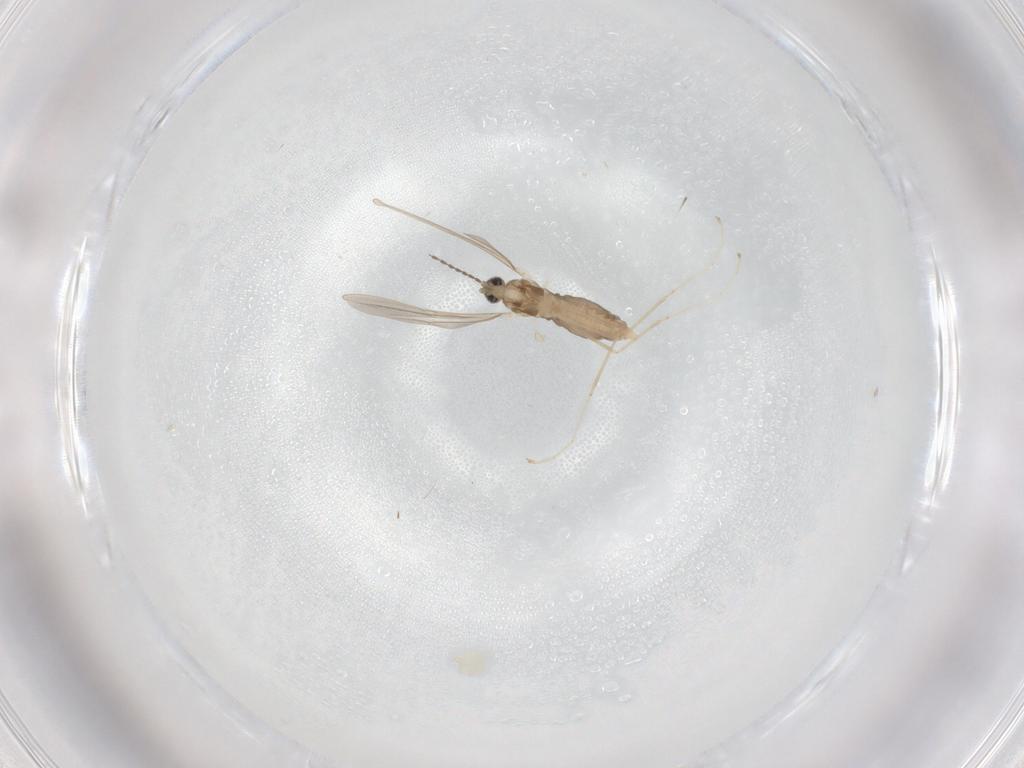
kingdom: Animalia
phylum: Arthropoda
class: Insecta
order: Diptera
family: Cecidomyiidae
